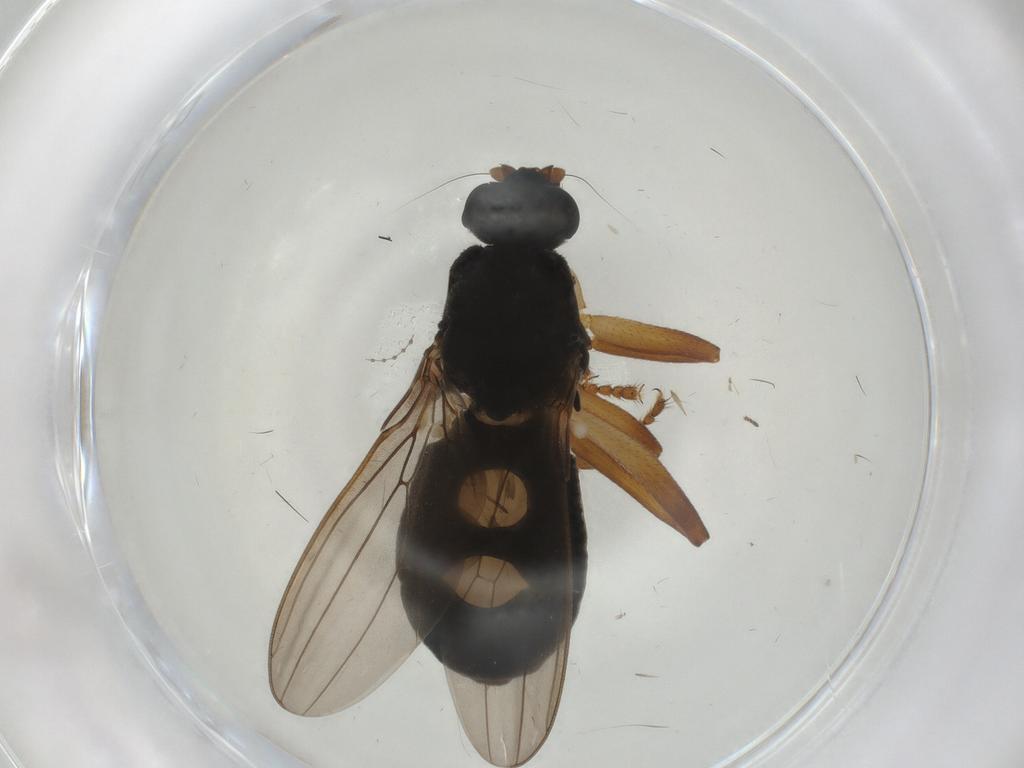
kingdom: Animalia
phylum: Arthropoda
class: Insecta
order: Diptera
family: Sphaeroceridae
